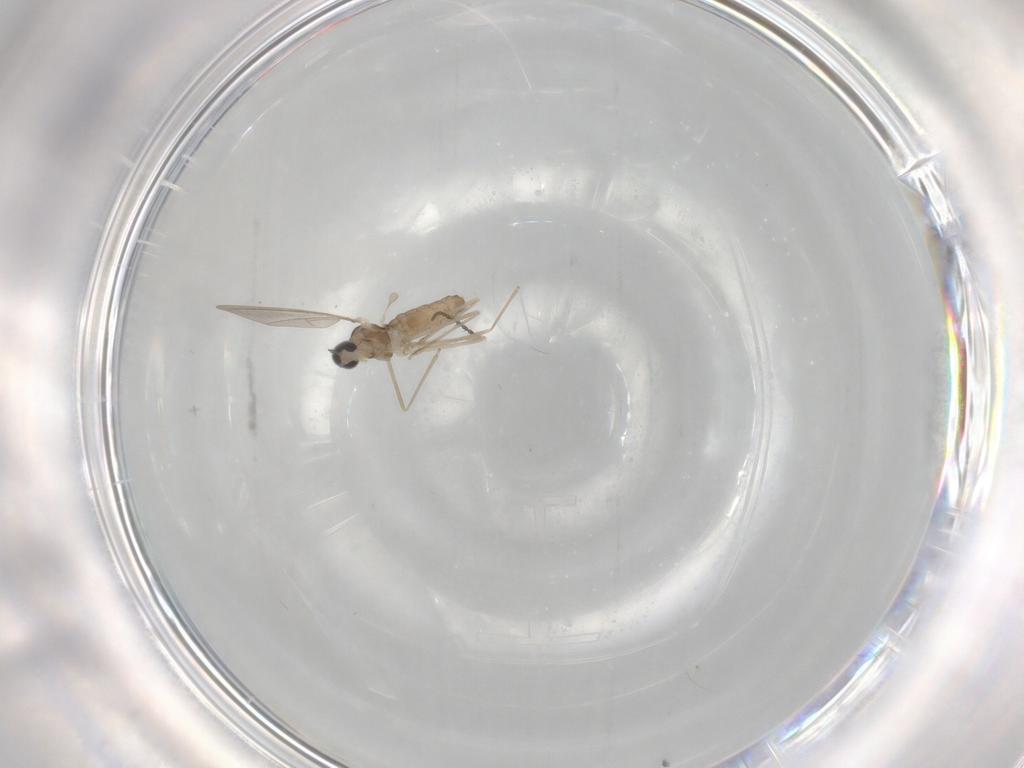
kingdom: Animalia
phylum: Arthropoda
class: Insecta
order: Diptera
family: Cecidomyiidae
